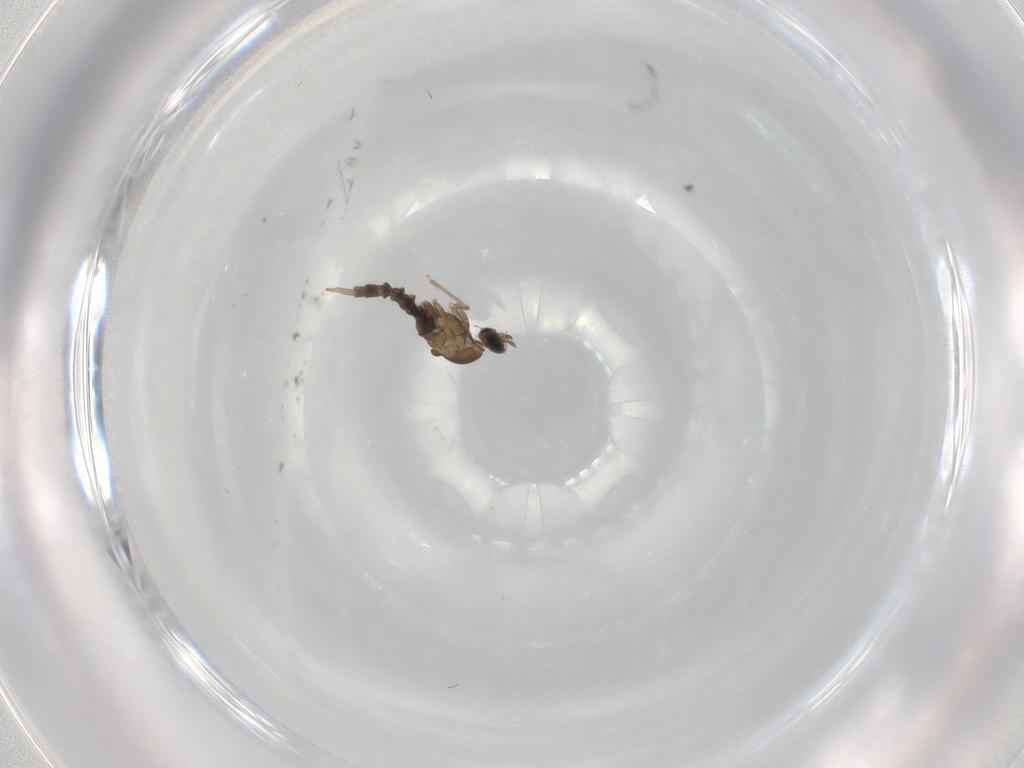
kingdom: Animalia
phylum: Arthropoda
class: Insecta
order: Diptera
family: Cecidomyiidae
